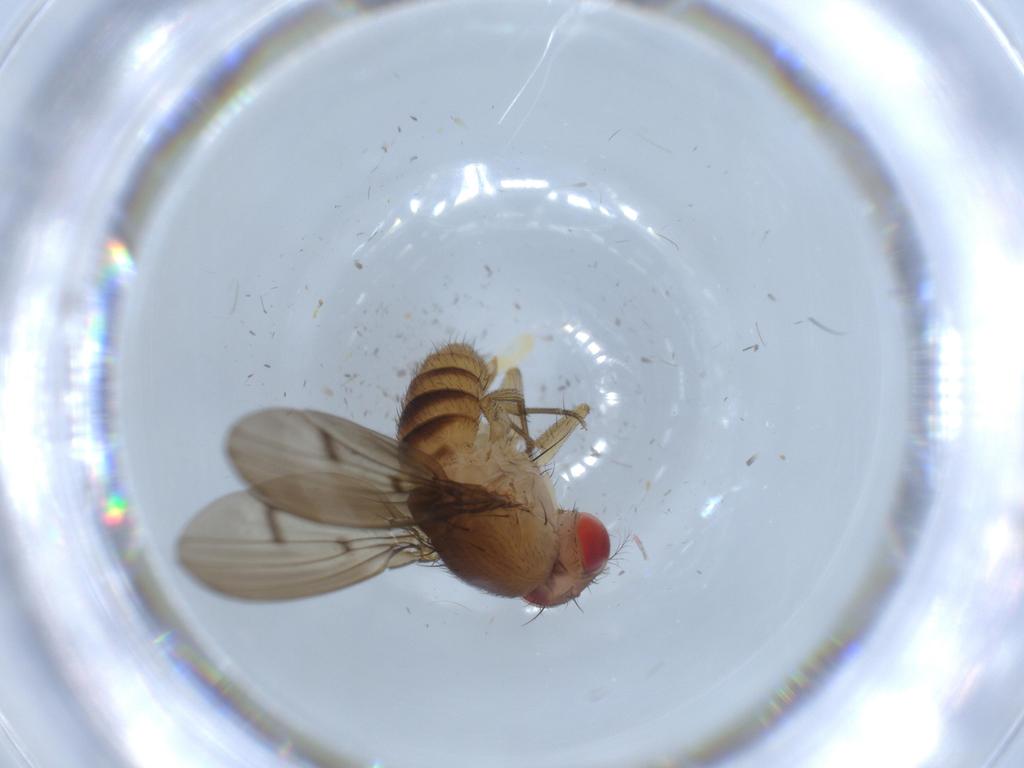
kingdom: Animalia
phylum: Arthropoda
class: Insecta
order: Diptera
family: Drosophilidae
